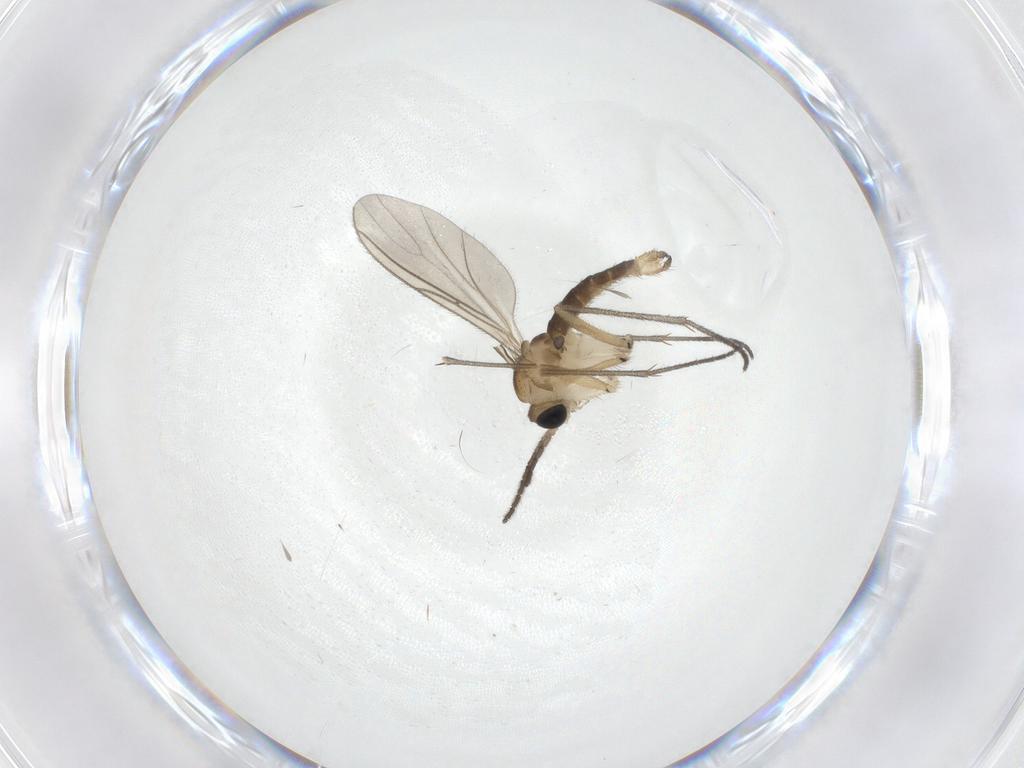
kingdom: Animalia
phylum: Arthropoda
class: Insecta
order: Diptera
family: Sciaridae
